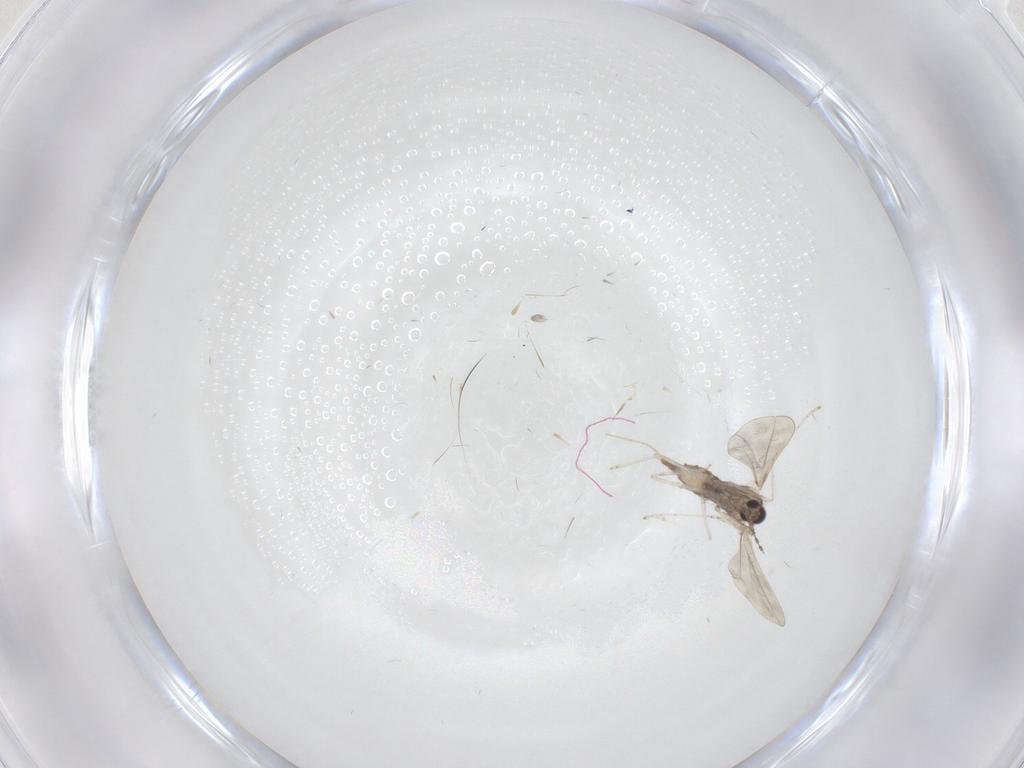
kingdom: Animalia
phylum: Arthropoda
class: Insecta
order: Diptera
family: Cecidomyiidae
